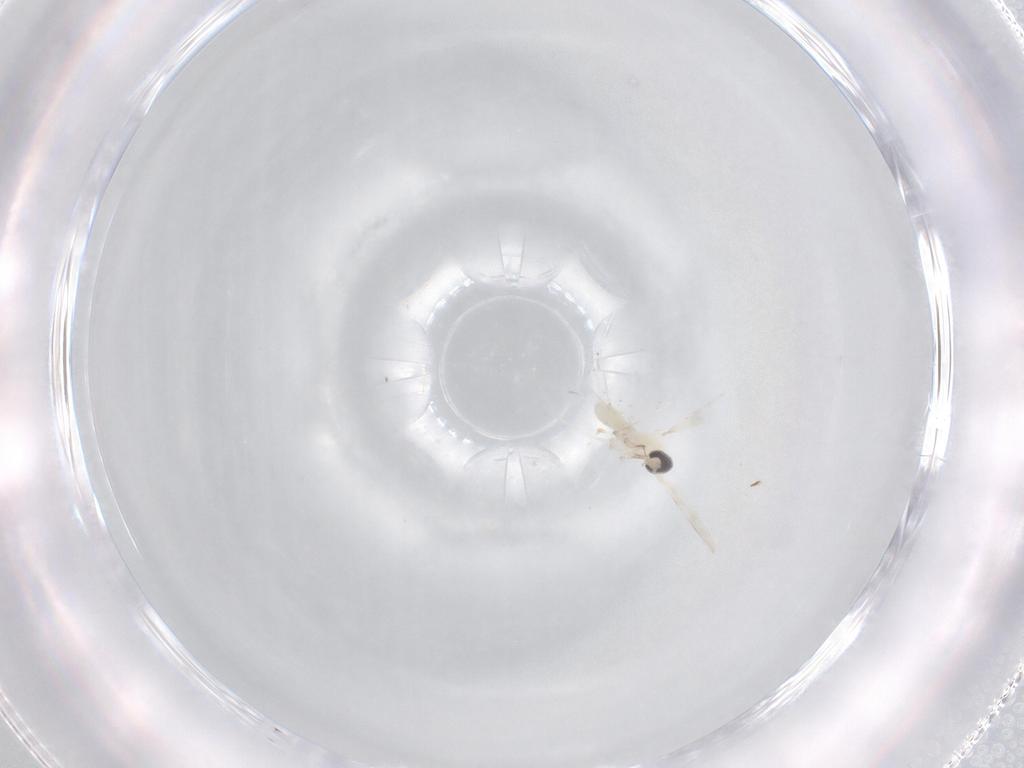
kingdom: Animalia
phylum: Arthropoda
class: Insecta
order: Diptera
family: Cecidomyiidae
